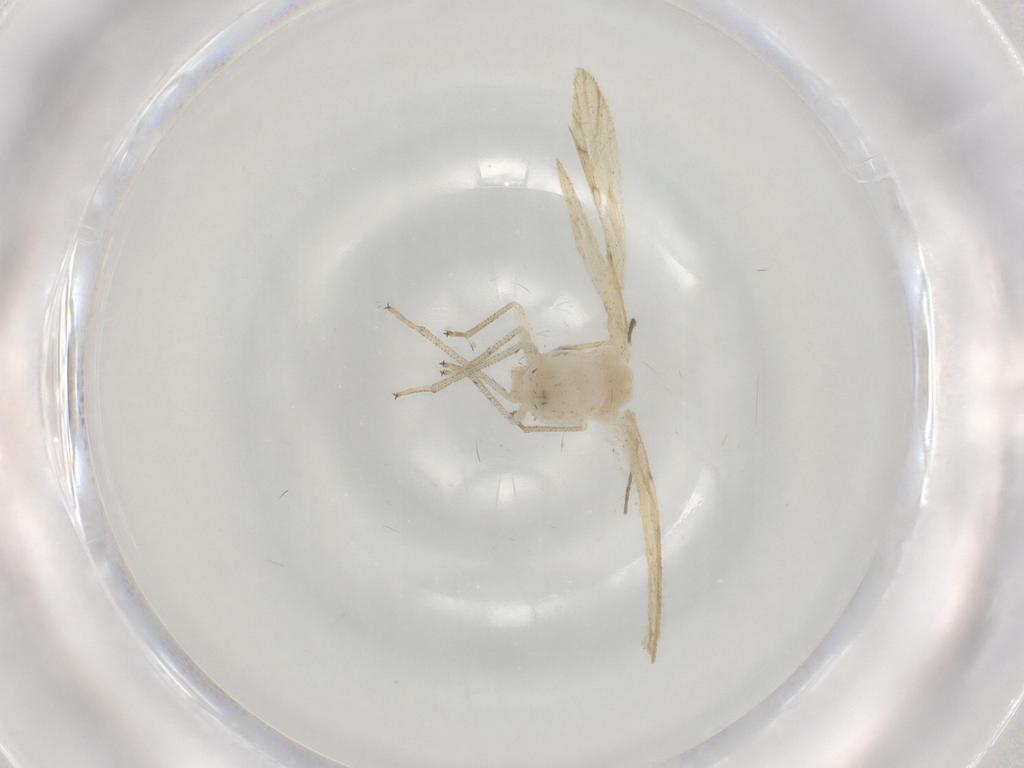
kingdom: Animalia
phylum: Arthropoda
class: Insecta
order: Psocodea
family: Caeciliusidae
